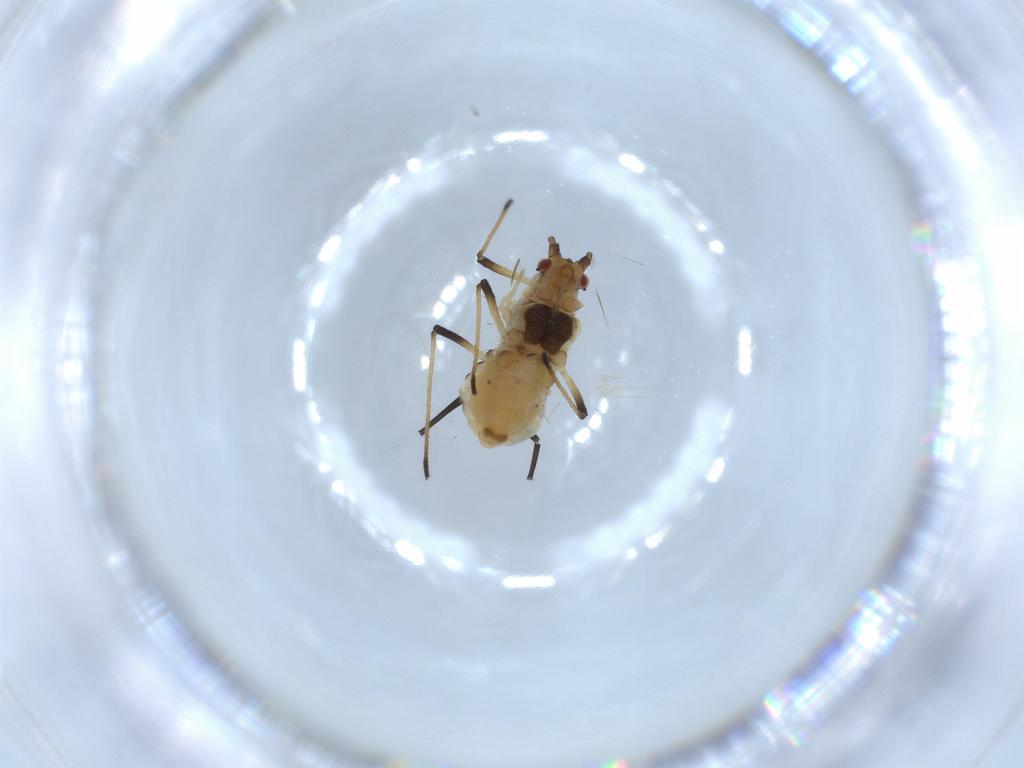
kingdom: Animalia
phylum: Arthropoda
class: Insecta
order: Hemiptera
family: Aphididae
